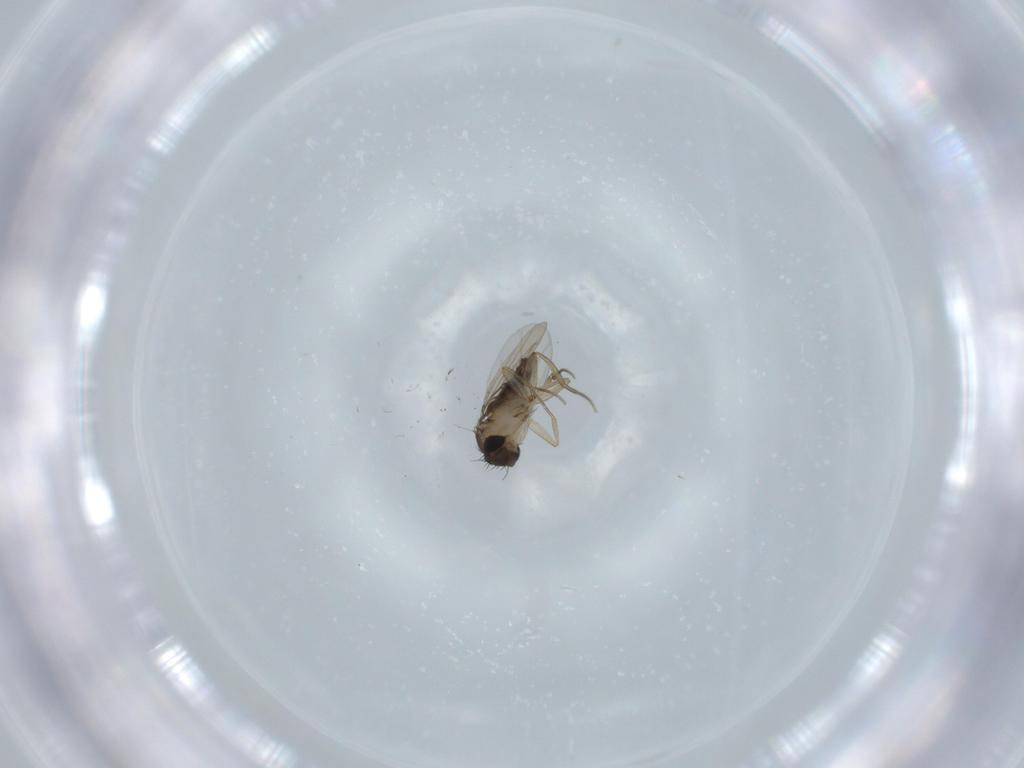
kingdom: Animalia
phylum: Arthropoda
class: Insecta
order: Diptera
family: Phoridae
